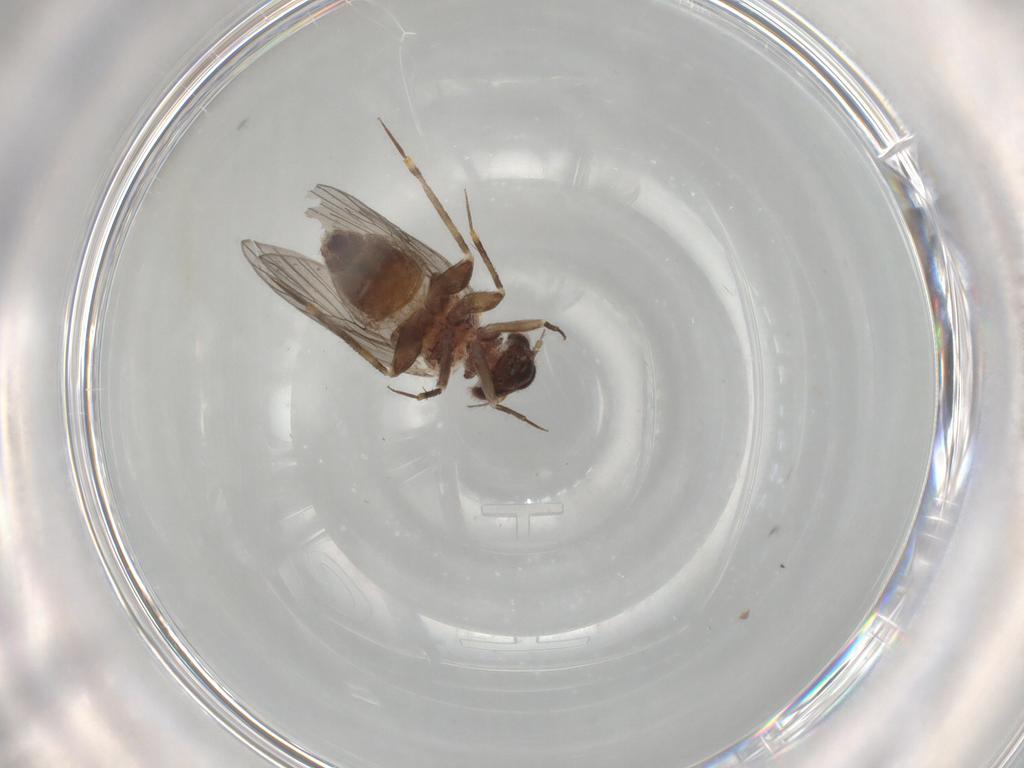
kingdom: Animalia
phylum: Arthropoda
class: Insecta
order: Psocodea
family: Lepidopsocidae
